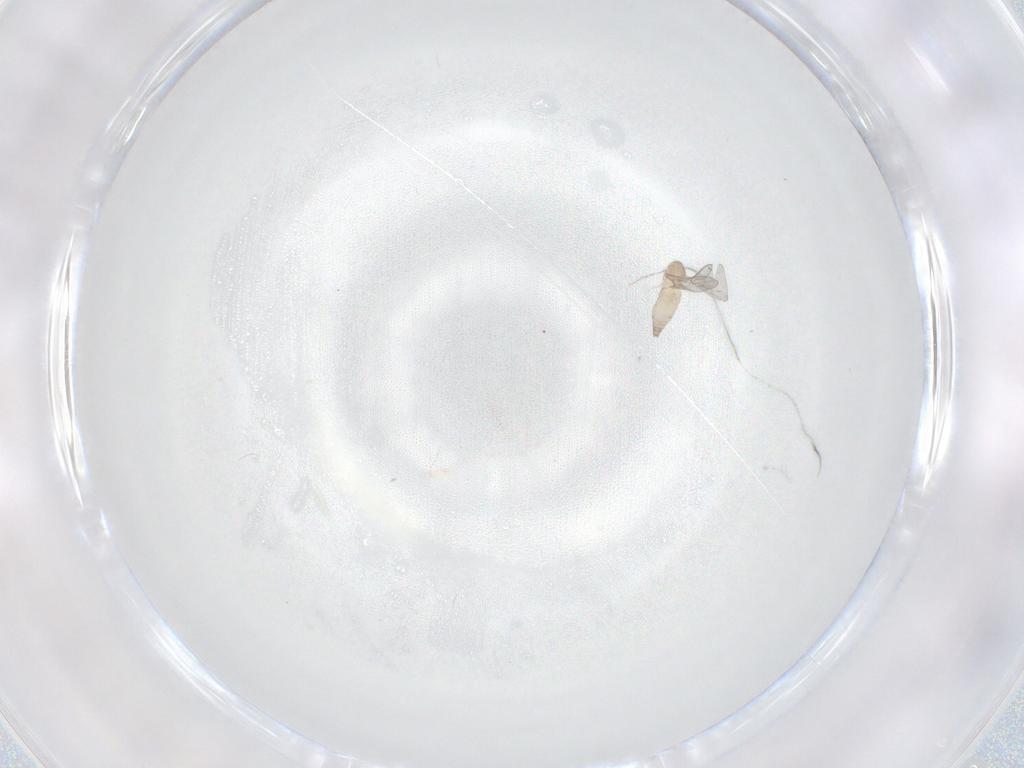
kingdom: Animalia
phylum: Arthropoda
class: Insecta
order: Diptera
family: Cecidomyiidae
